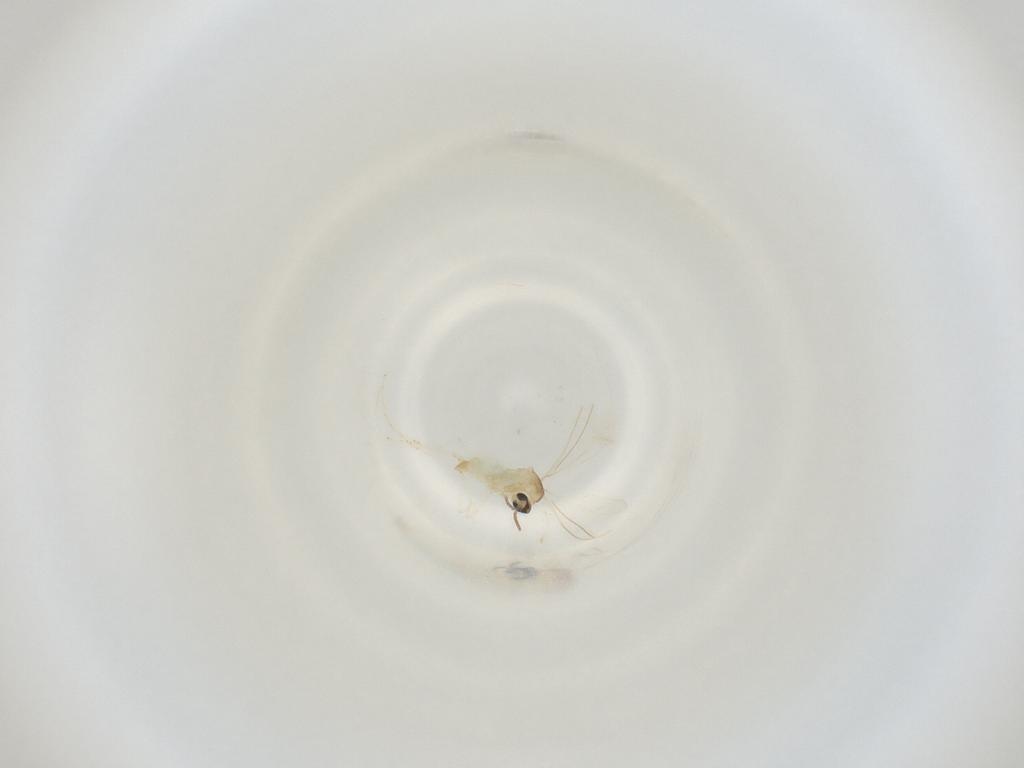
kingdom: Animalia
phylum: Arthropoda
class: Insecta
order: Diptera
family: Cecidomyiidae
